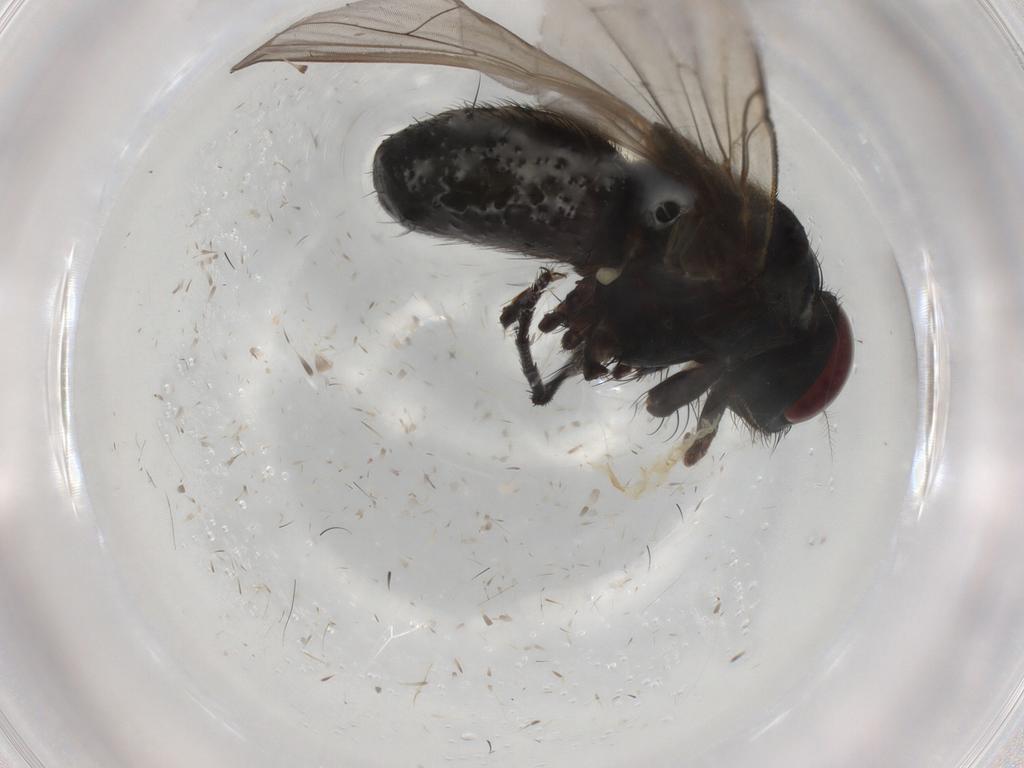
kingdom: Animalia
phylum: Arthropoda
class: Insecta
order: Diptera
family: Muscidae
